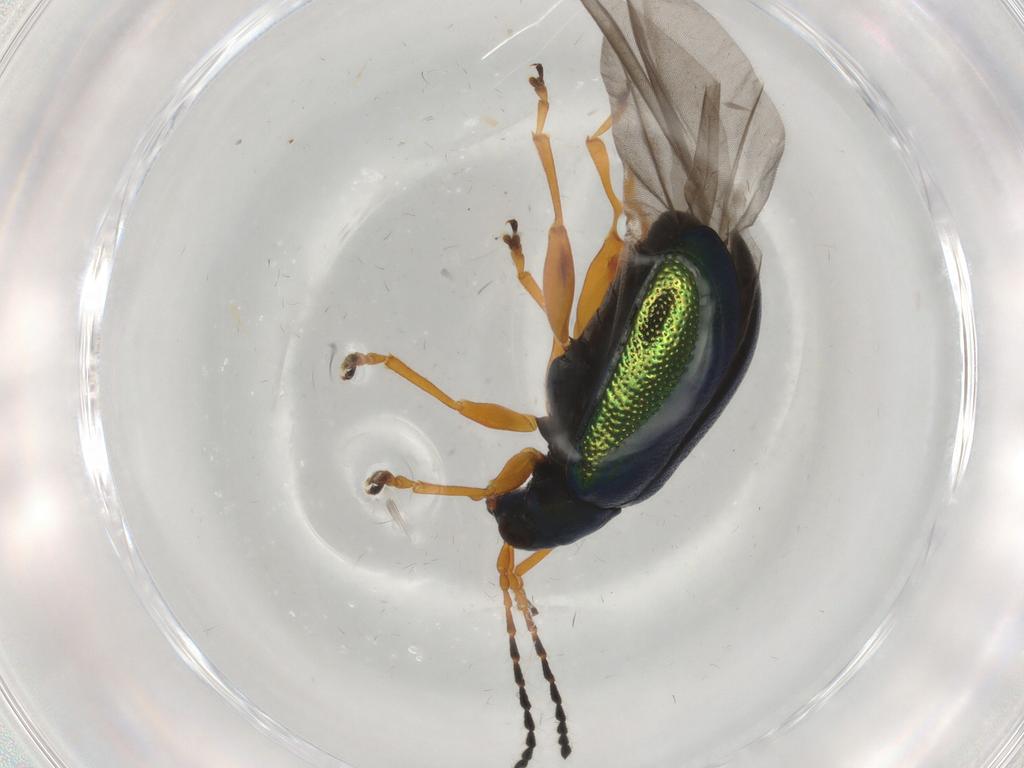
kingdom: Animalia
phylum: Arthropoda
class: Insecta
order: Coleoptera
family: Chrysomelidae
